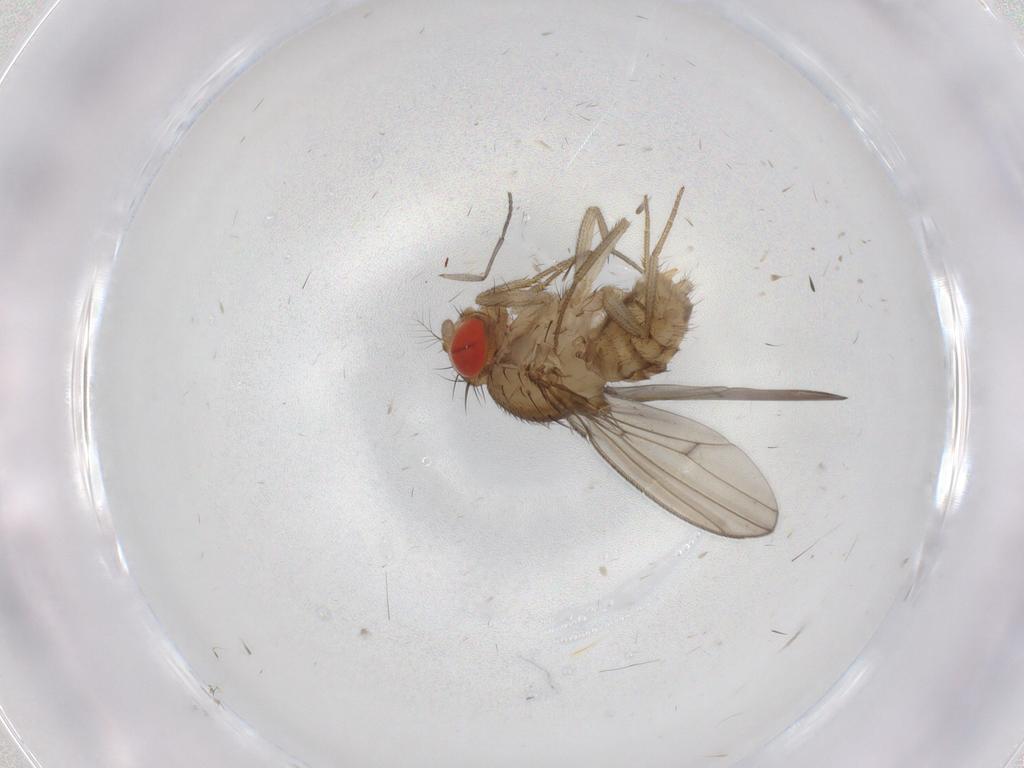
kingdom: Animalia
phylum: Arthropoda
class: Insecta
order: Diptera
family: Drosophilidae
